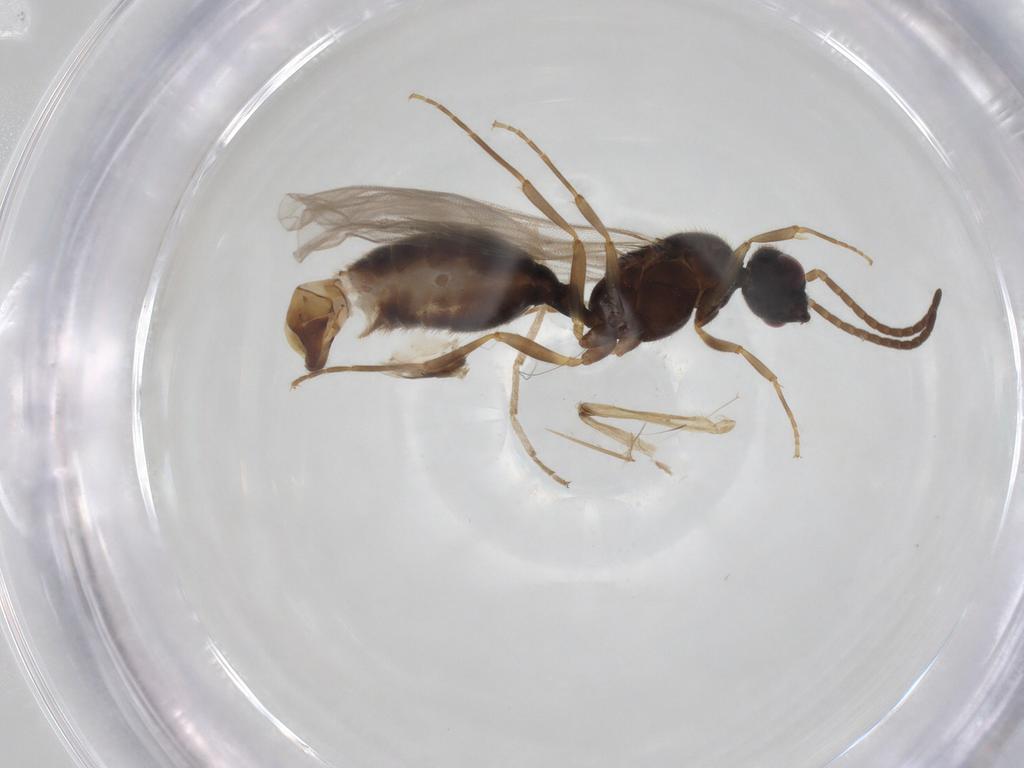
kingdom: Animalia
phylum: Arthropoda
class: Insecta
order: Hymenoptera
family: Formicidae
